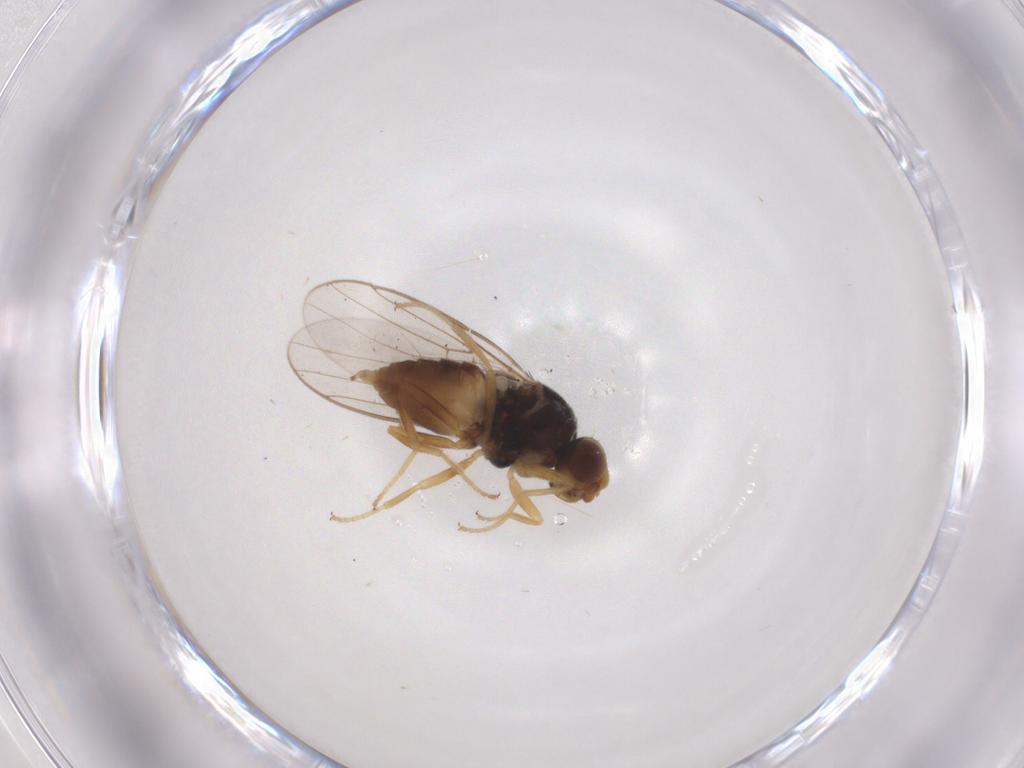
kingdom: Animalia
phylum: Arthropoda
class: Insecta
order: Diptera
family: Chloropidae
